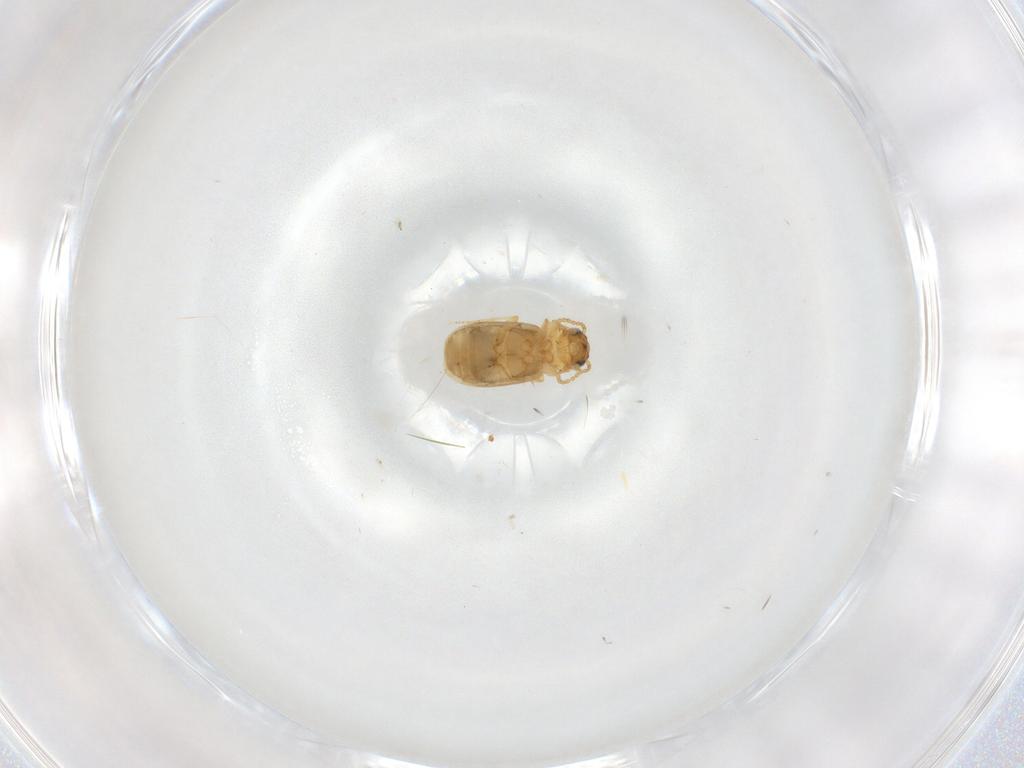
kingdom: Animalia
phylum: Arthropoda
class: Insecta
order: Coleoptera
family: Carabidae
